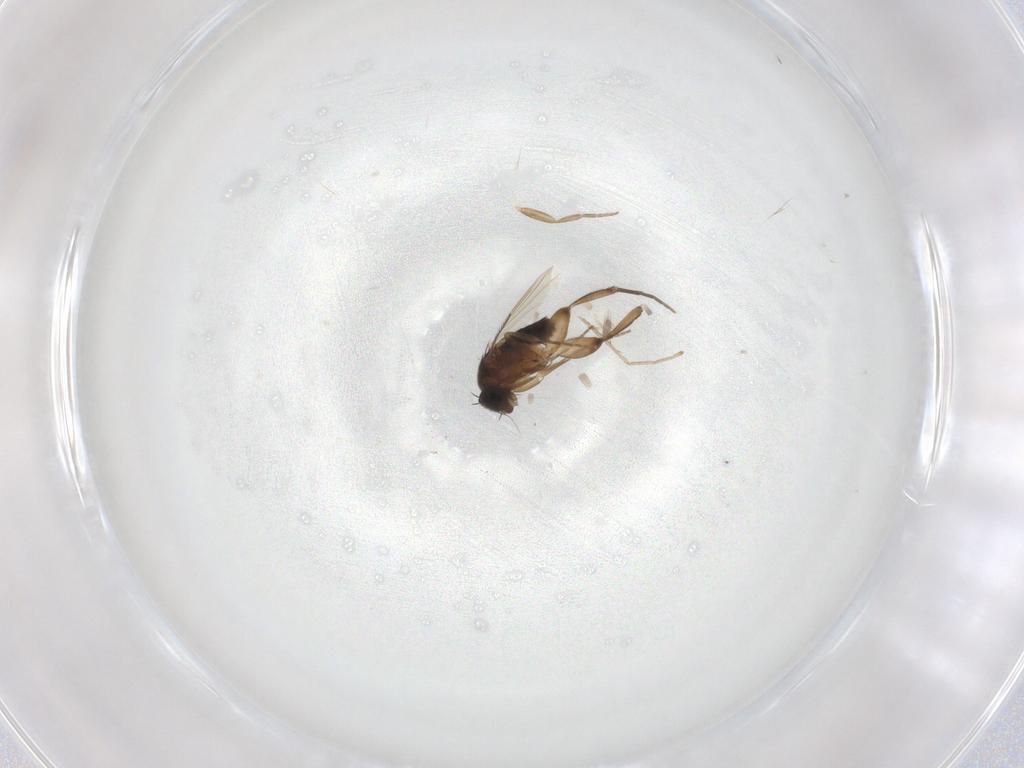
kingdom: Animalia
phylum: Arthropoda
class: Insecta
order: Diptera
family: Cecidomyiidae
